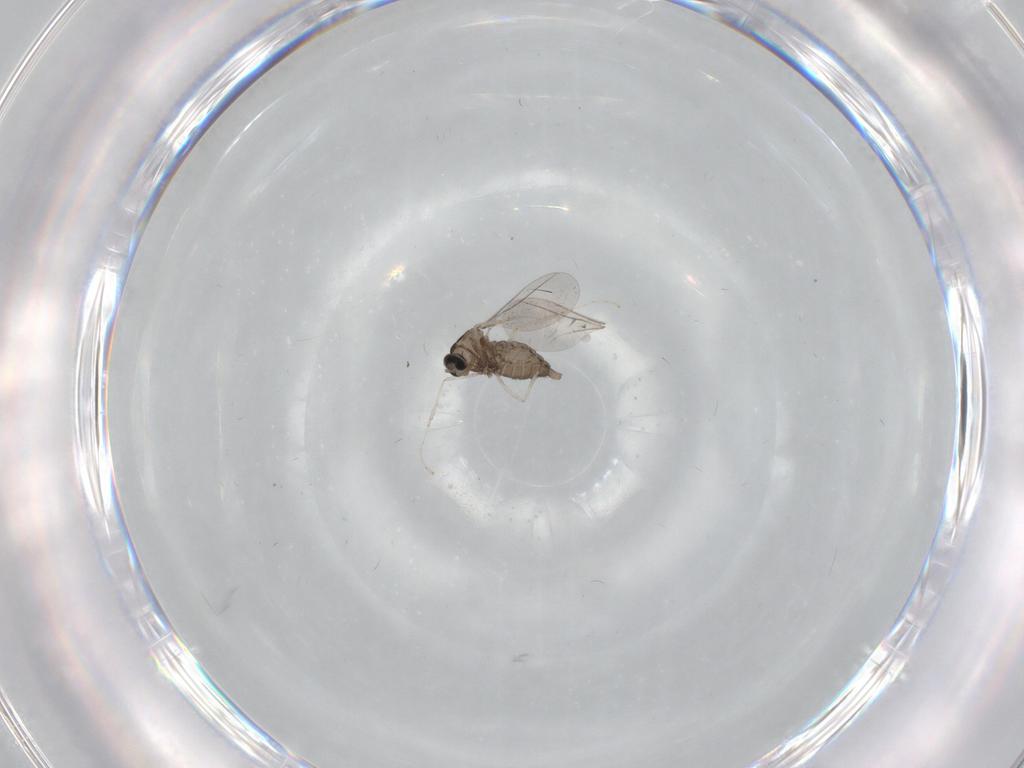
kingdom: Animalia
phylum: Arthropoda
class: Insecta
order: Diptera
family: Cecidomyiidae
